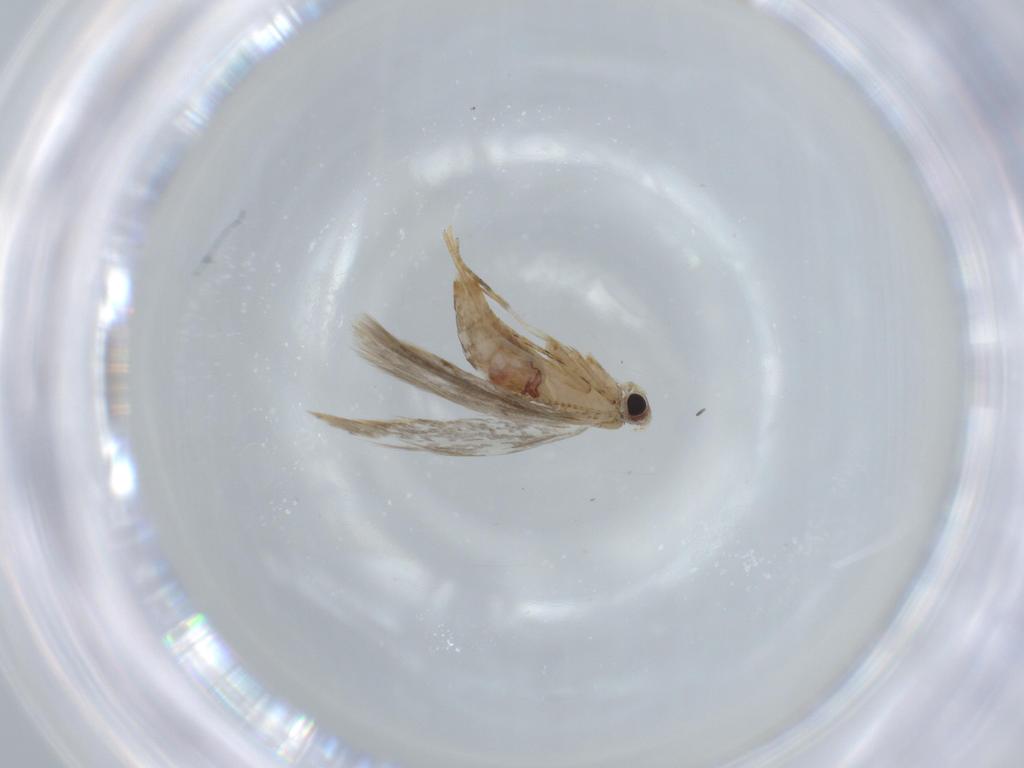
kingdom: Animalia
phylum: Arthropoda
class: Insecta
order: Lepidoptera
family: Tineidae
